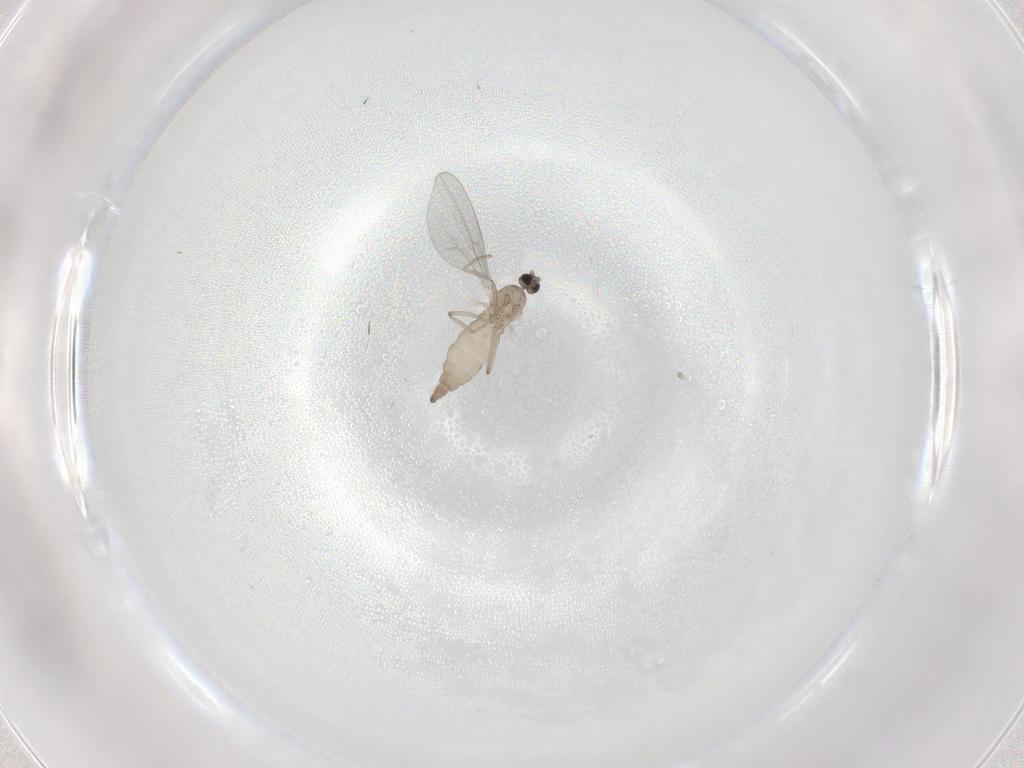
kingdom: Animalia
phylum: Arthropoda
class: Insecta
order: Diptera
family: Cecidomyiidae
